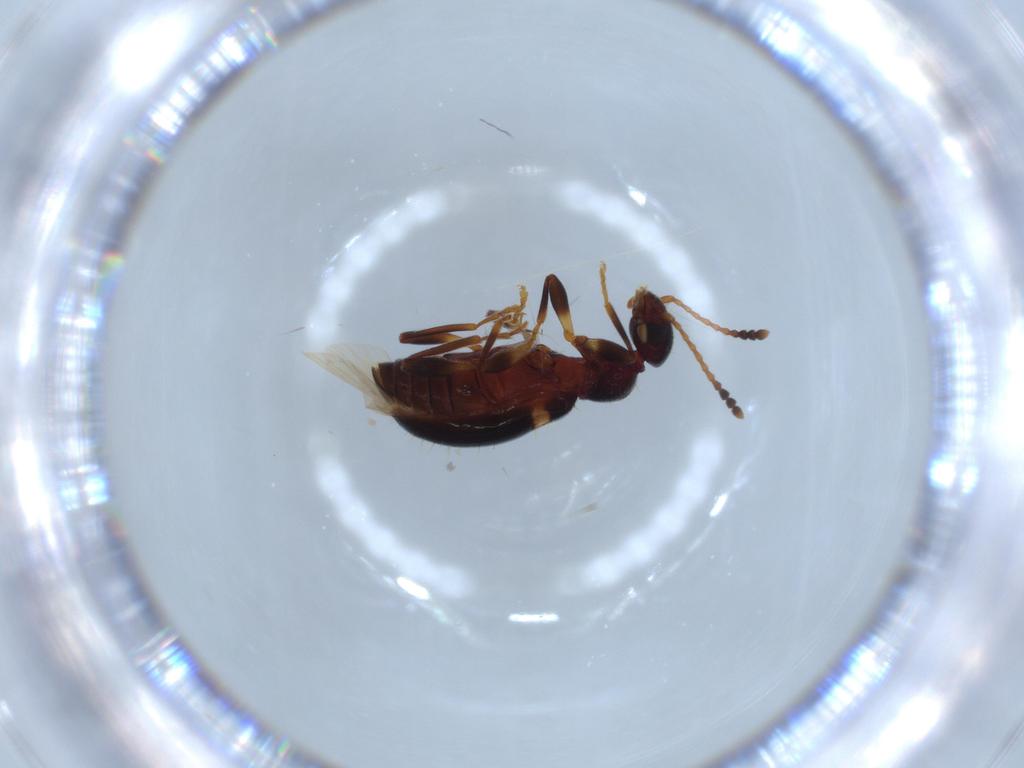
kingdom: Animalia
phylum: Arthropoda
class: Insecta
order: Coleoptera
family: Anthicidae
